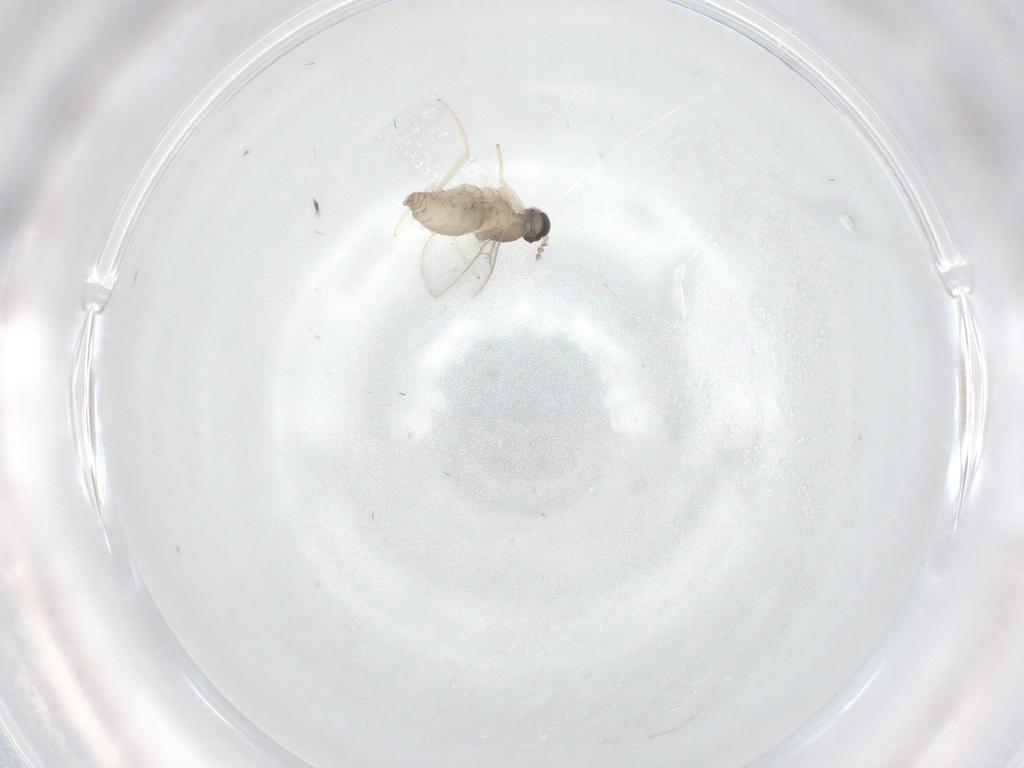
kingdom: Animalia
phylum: Arthropoda
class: Insecta
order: Diptera
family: Cecidomyiidae
